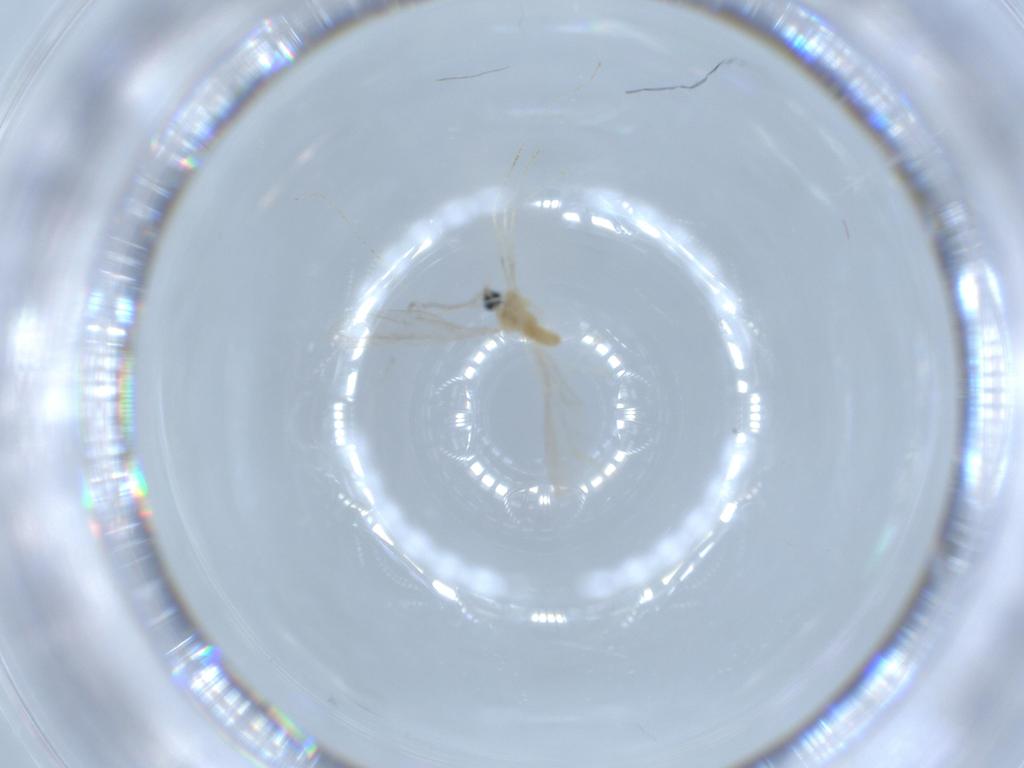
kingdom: Animalia
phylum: Arthropoda
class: Insecta
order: Diptera
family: Cecidomyiidae
